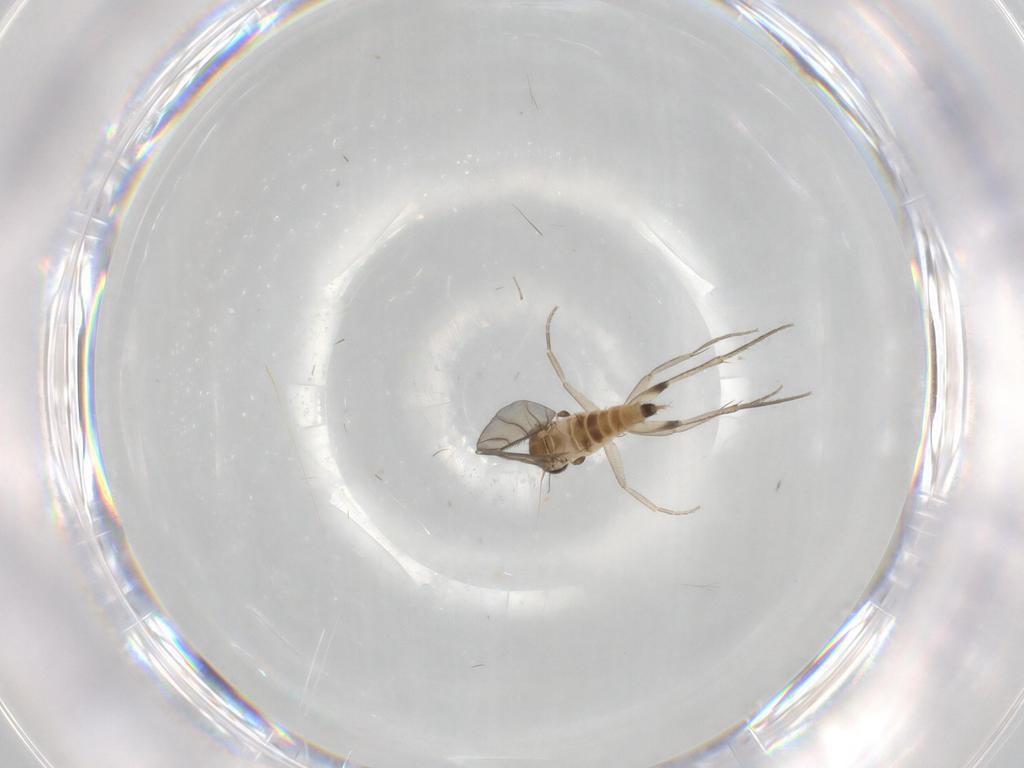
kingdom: Animalia
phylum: Arthropoda
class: Insecta
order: Diptera
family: Phoridae
